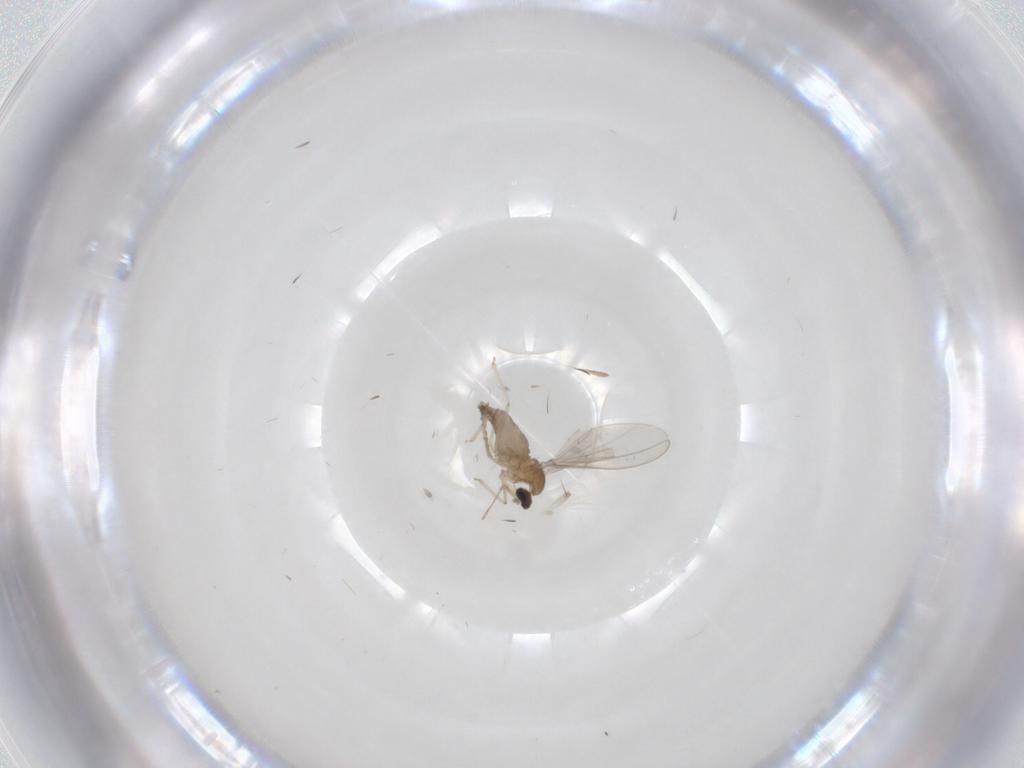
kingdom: Animalia
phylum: Arthropoda
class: Insecta
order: Diptera
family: Cecidomyiidae
